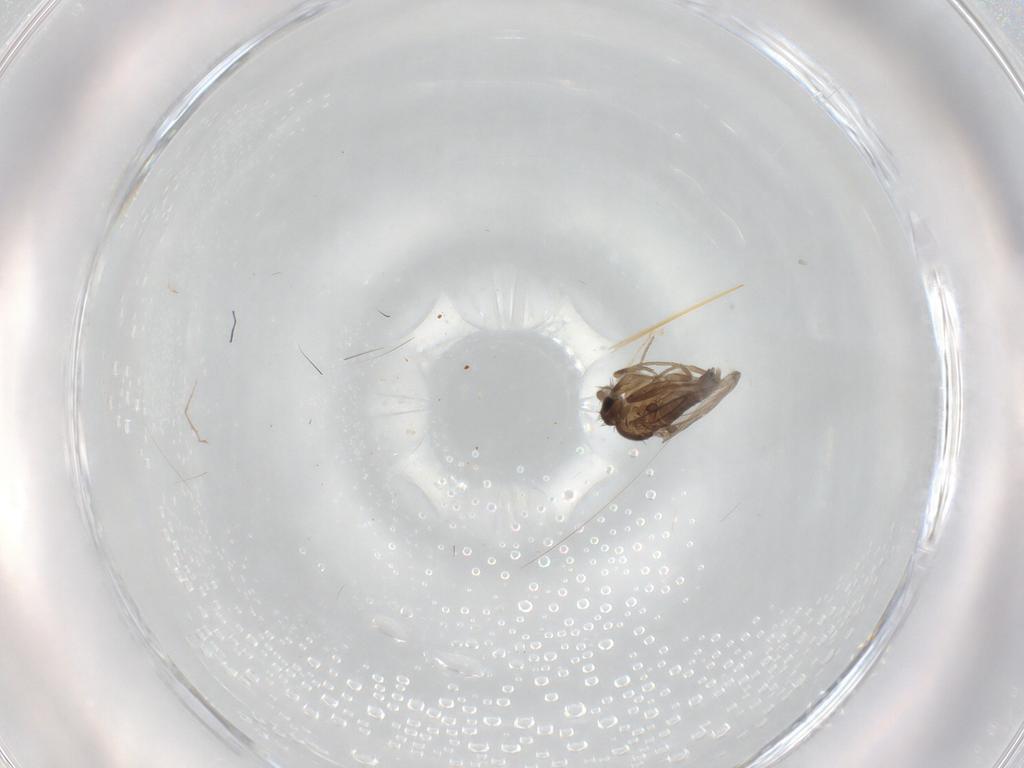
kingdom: Animalia
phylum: Arthropoda
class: Insecta
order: Diptera
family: Phoridae
